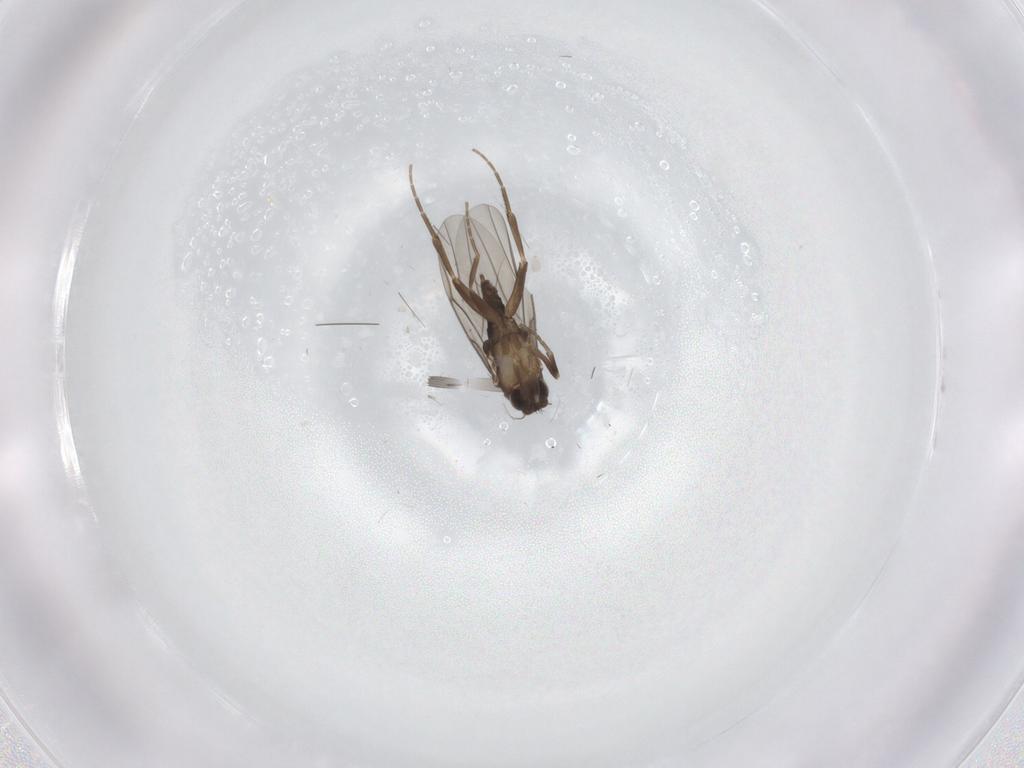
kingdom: Animalia
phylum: Arthropoda
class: Insecta
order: Diptera
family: Sciaridae
